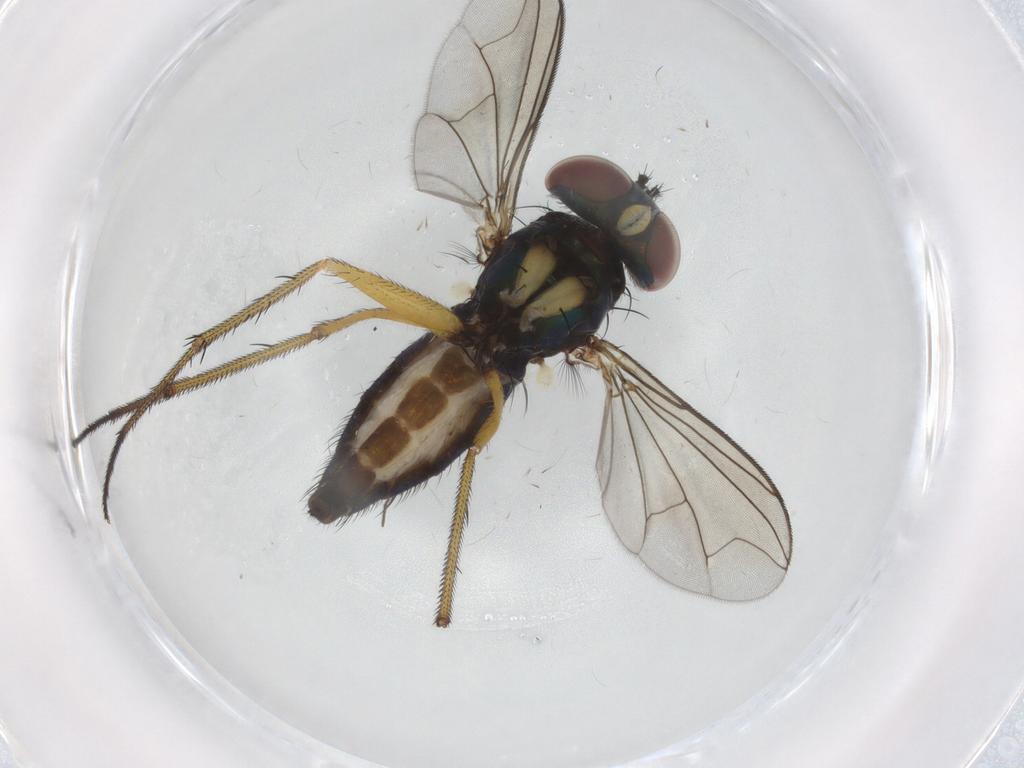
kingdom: Animalia
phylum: Arthropoda
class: Insecta
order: Diptera
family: Dolichopodidae
